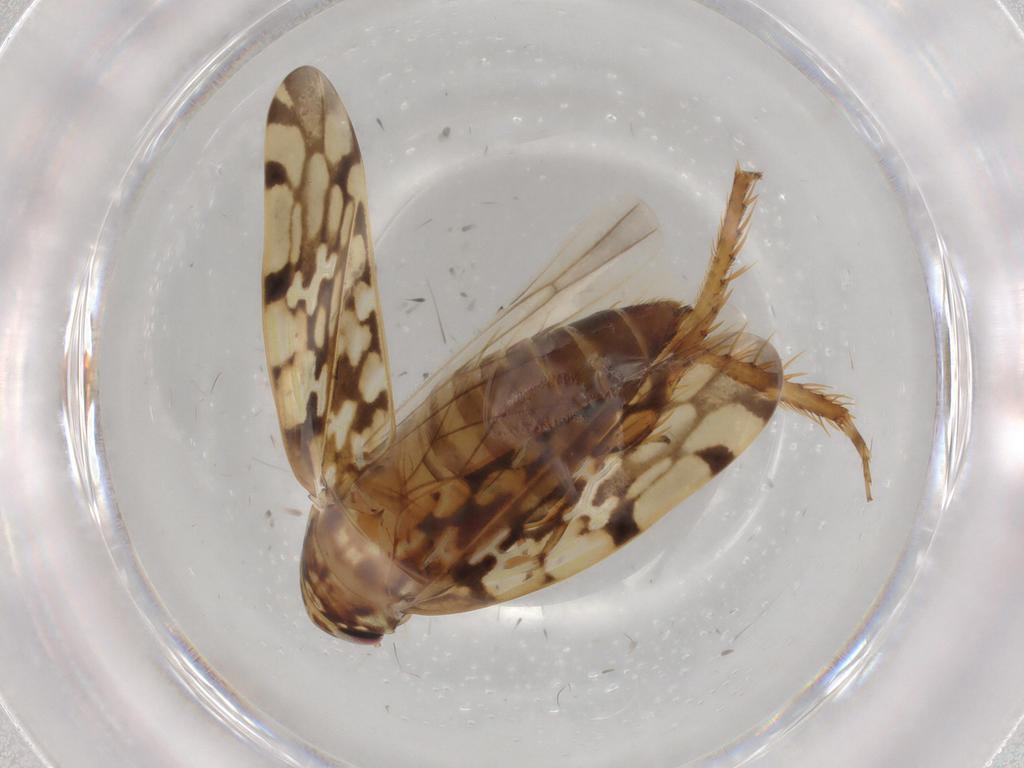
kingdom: Animalia
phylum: Arthropoda
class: Insecta
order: Hemiptera
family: Cicadellidae
